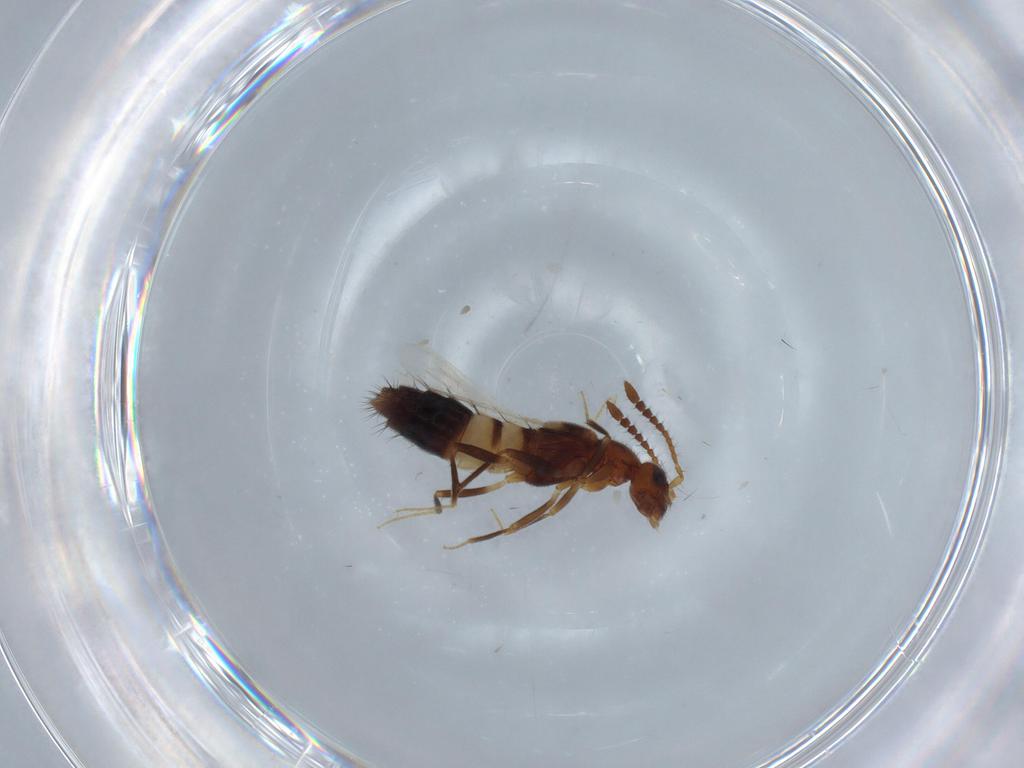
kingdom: Animalia
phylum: Arthropoda
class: Insecta
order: Coleoptera
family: Staphylinidae
